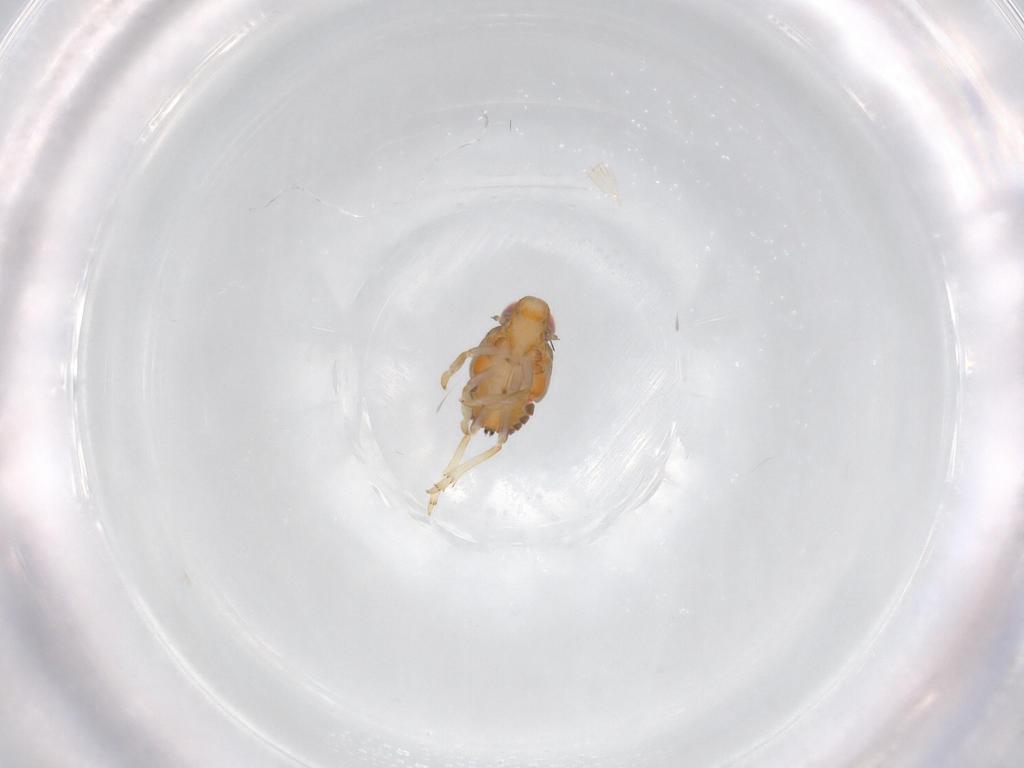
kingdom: Animalia
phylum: Arthropoda
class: Insecta
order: Hemiptera
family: Issidae
